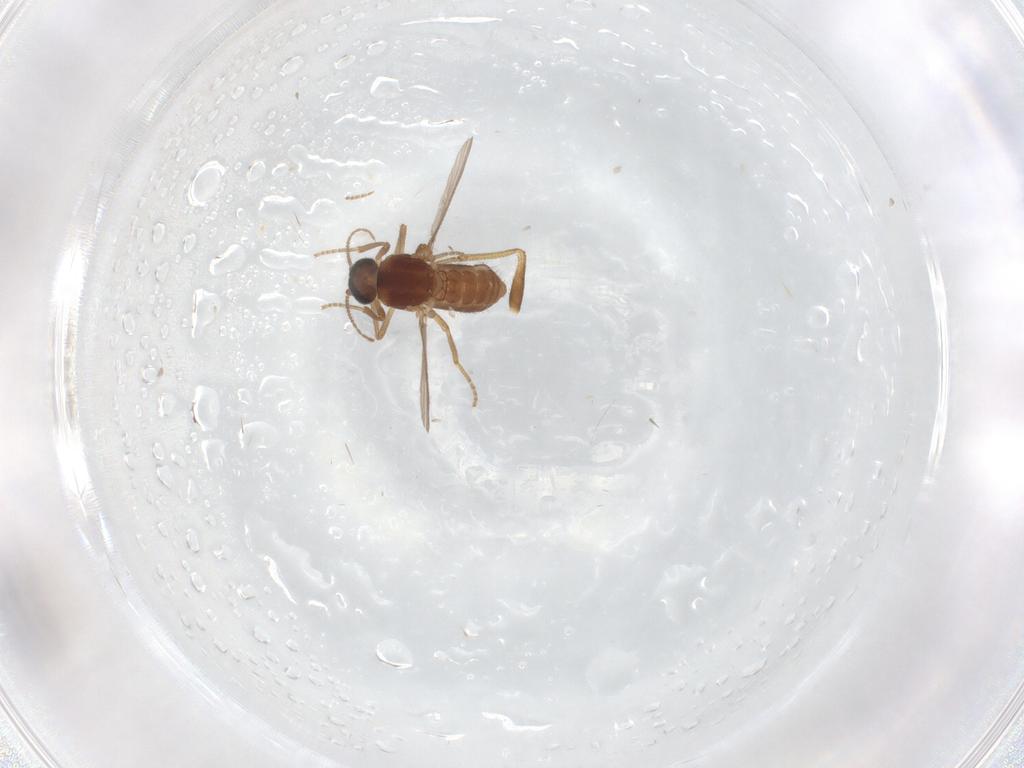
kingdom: Animalia
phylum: Arthropoda
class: Insecta
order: Diptera
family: Ceratopogonidae
